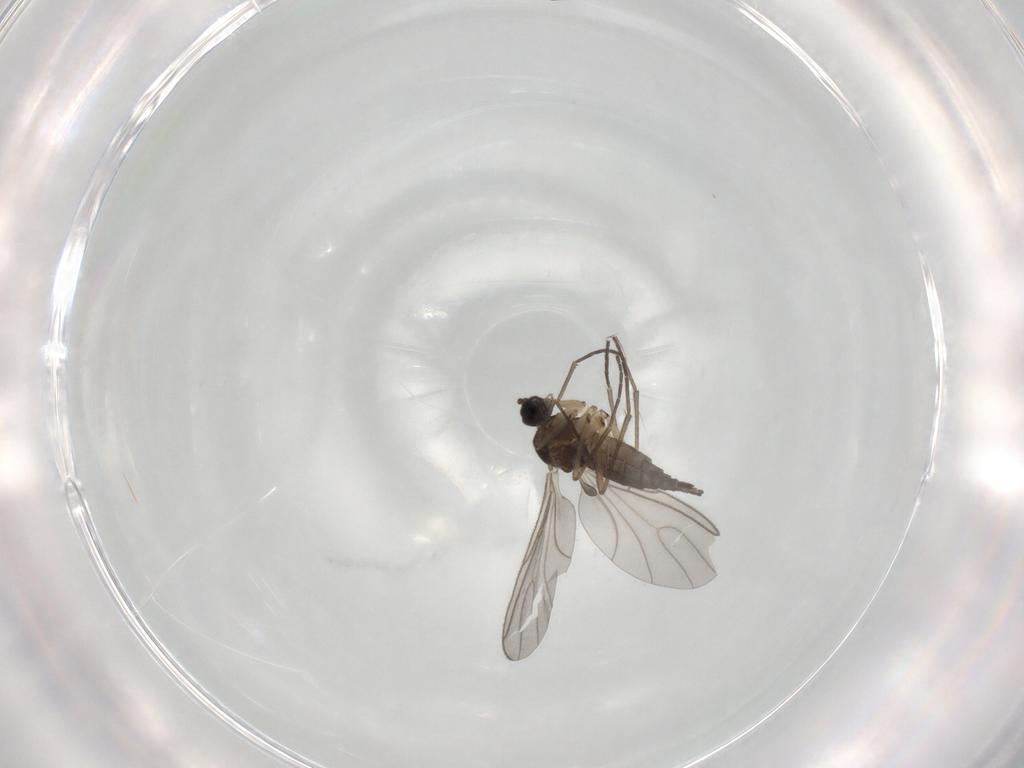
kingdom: Animalia
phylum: Arthropoda
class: Insecta
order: Diptera
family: Sciaridae
